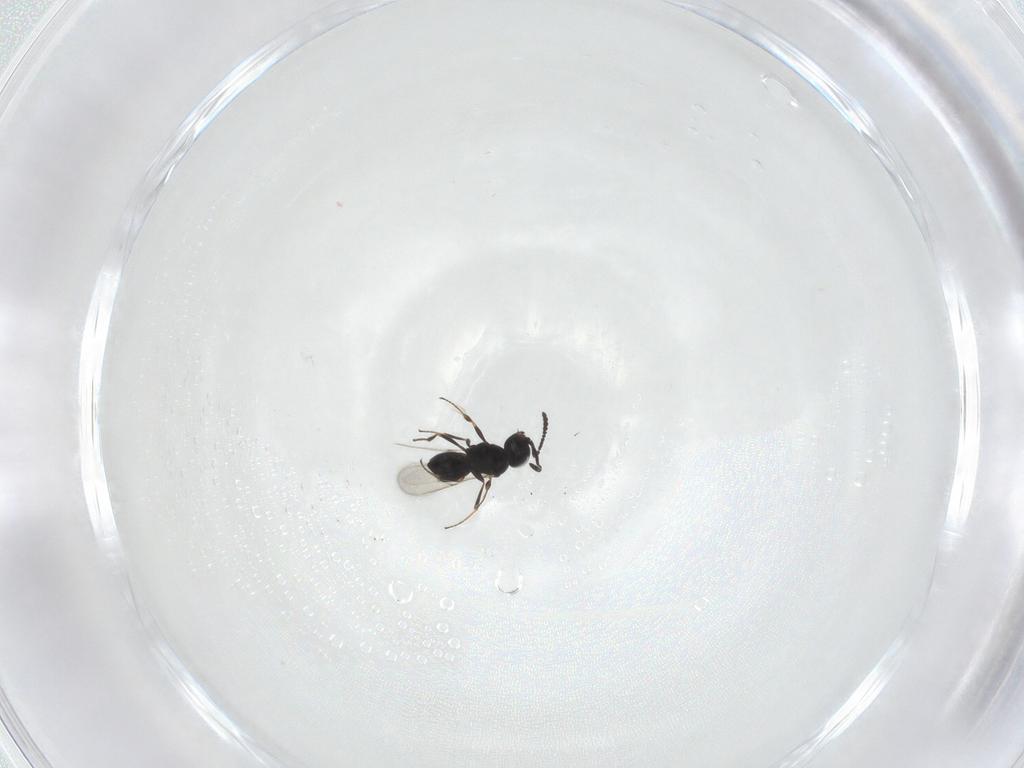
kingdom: Animalia
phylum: Arthropoda
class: Insecta
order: Hymenoptera
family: Scelionidae
